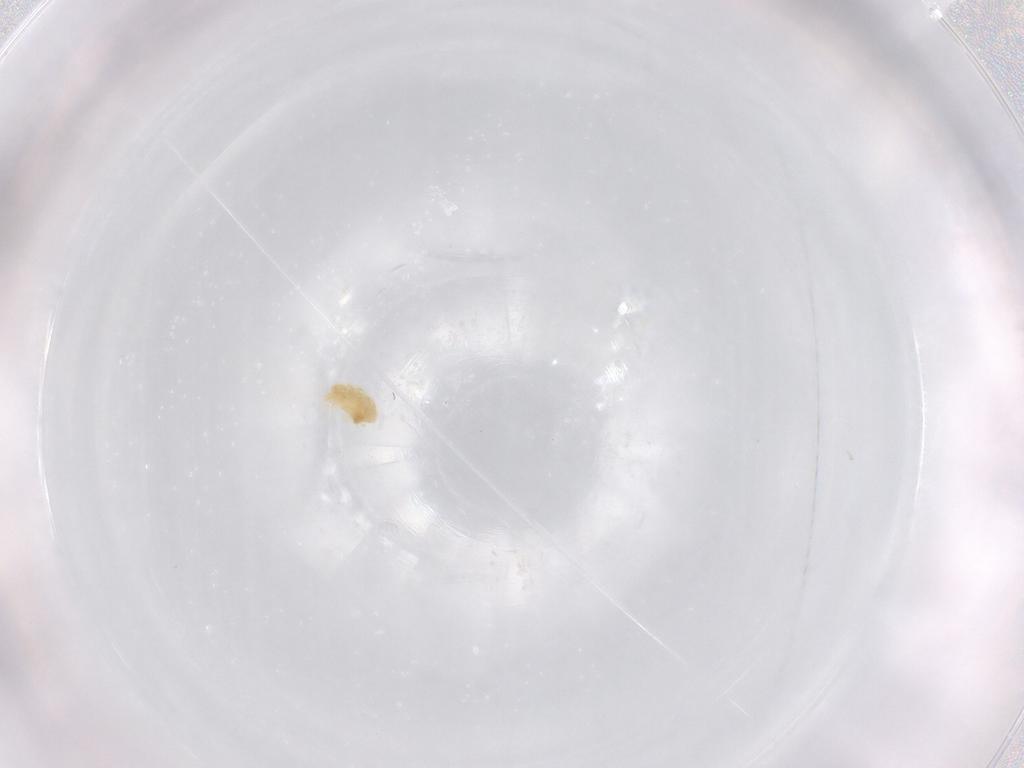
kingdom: Animalia
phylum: Arthropoda
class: Arachnida
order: Trombidiformes
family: Eupodidae
